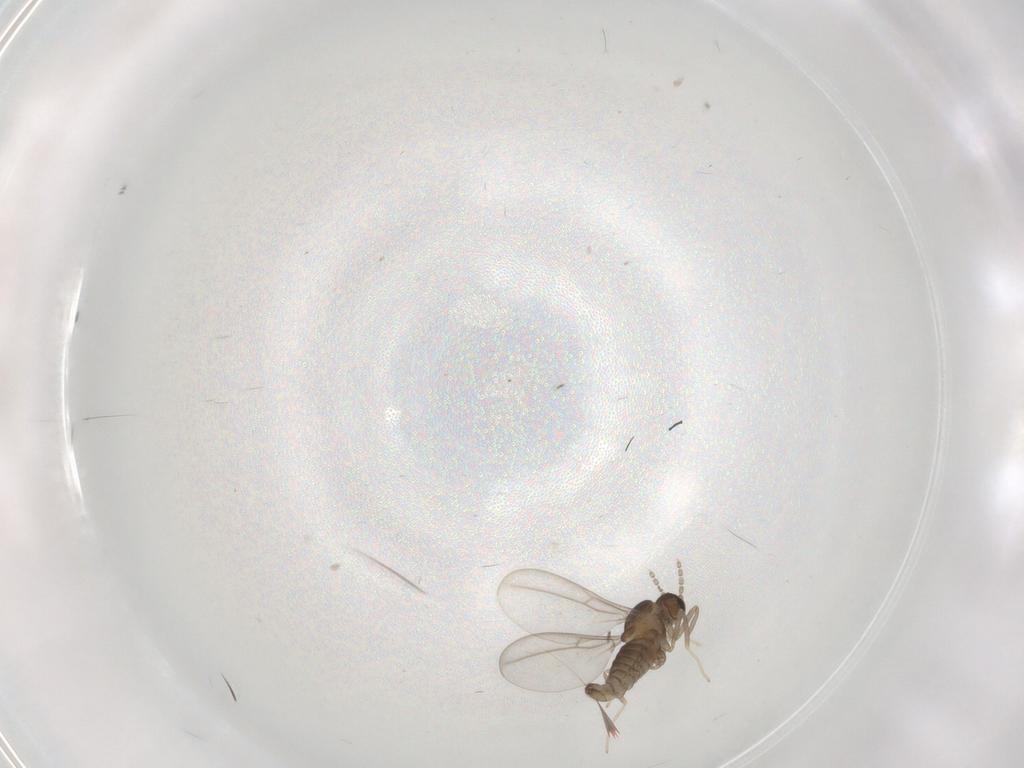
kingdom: Animalia
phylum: Arthropoda
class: Insecta
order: Diptera
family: Cecidomyiidae
